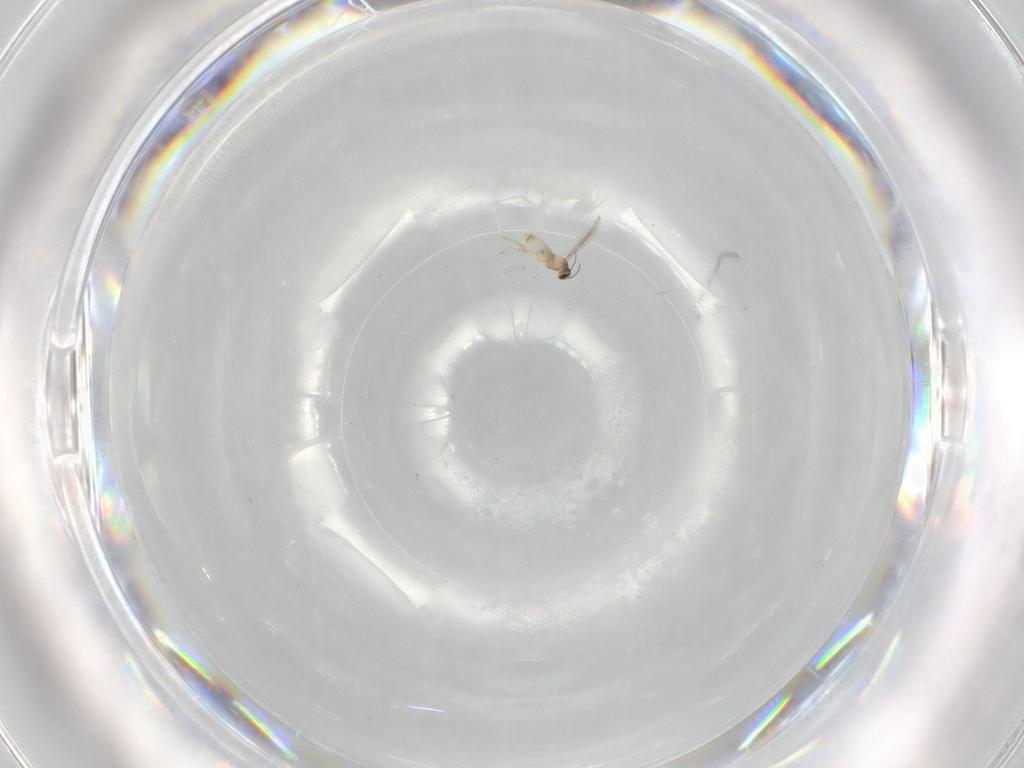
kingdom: Animalia
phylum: Arthropoda
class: Insecta
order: Diptera
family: Ceratopogonidae
